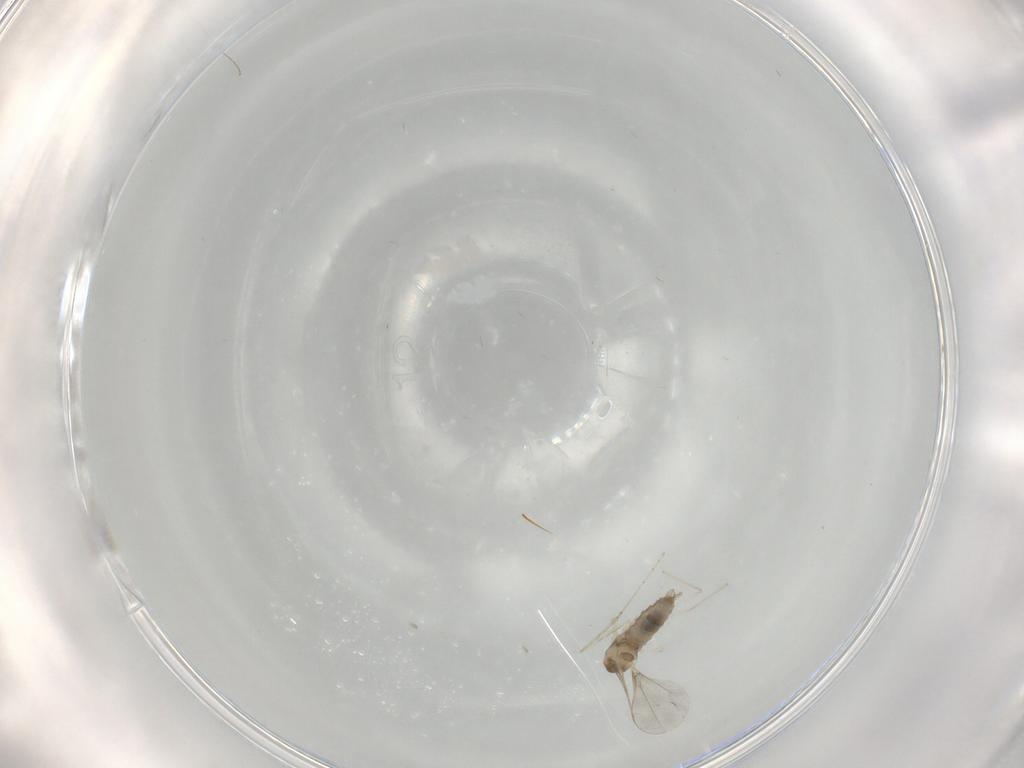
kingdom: Animalia
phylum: Arthropoda
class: Insecta
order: Diptera
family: Cecidomyiidae
